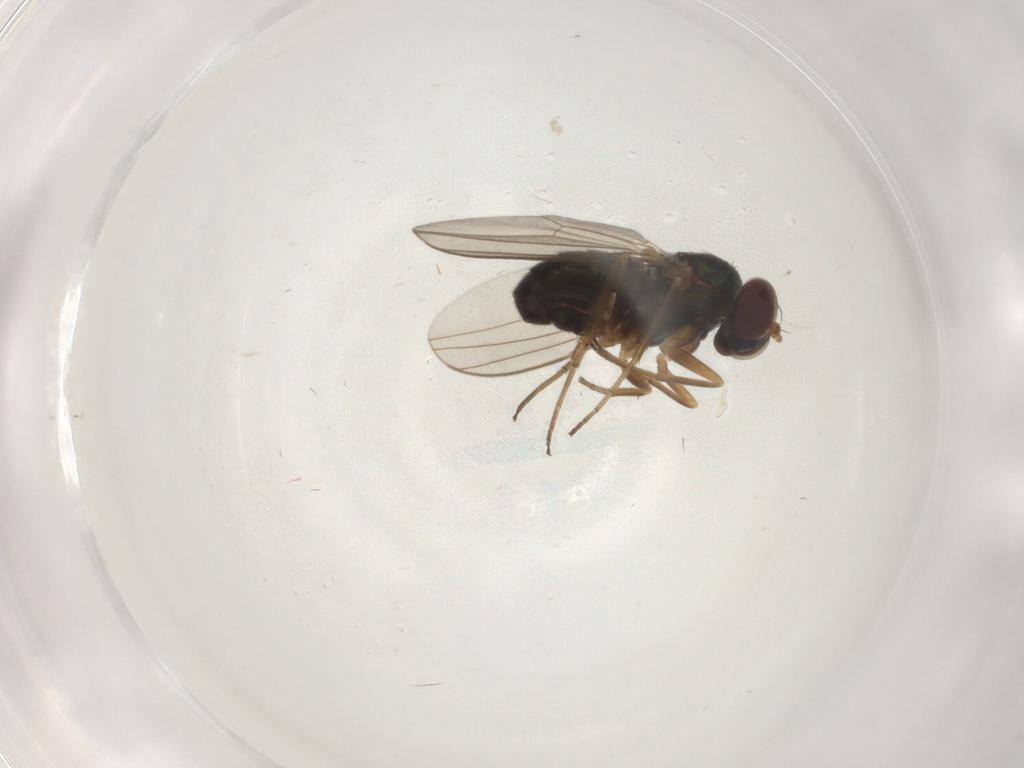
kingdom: Animalia
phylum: Arthropoda
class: Insecta
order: Diptera
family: Dolichopodidae
